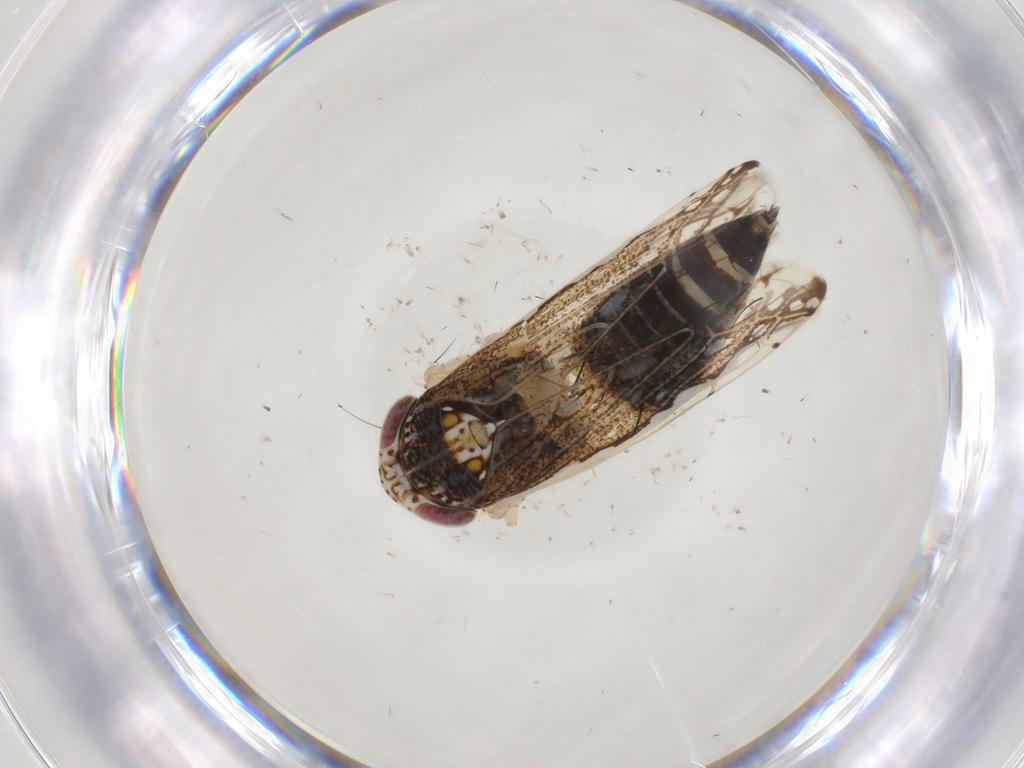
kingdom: Animalia
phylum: Arthropoda
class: Insecta
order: Hemiptera
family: Cicadellidae
